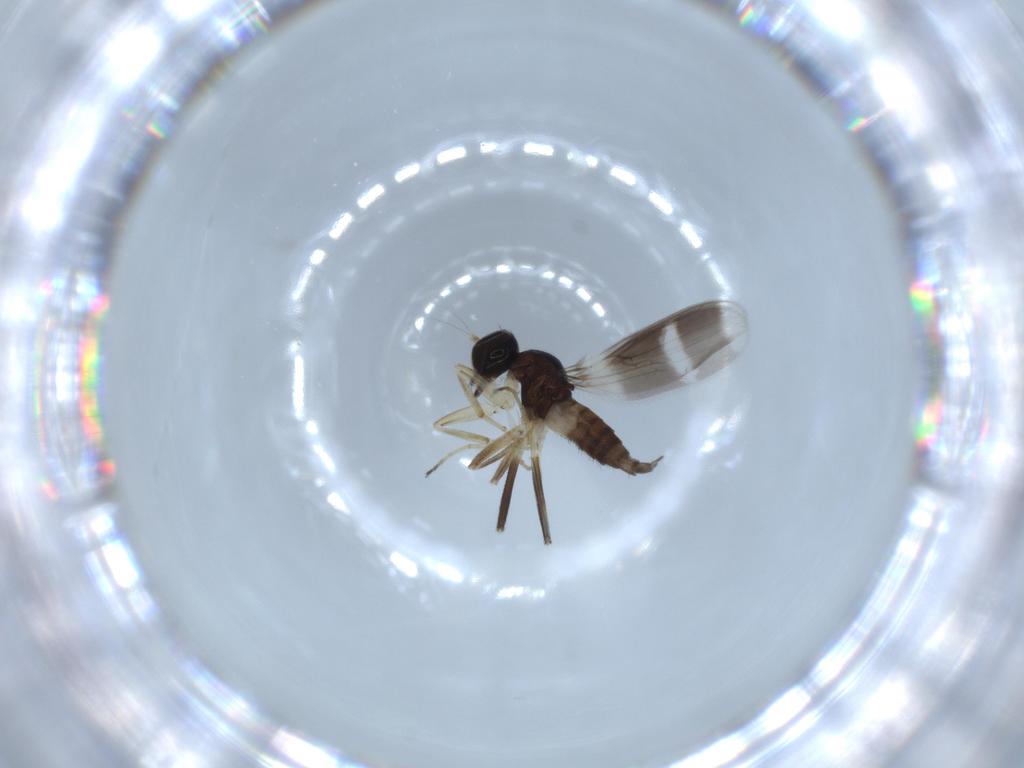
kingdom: Animalia
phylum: Arthropoda
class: Insecta
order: Diptera
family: Hybotidae
